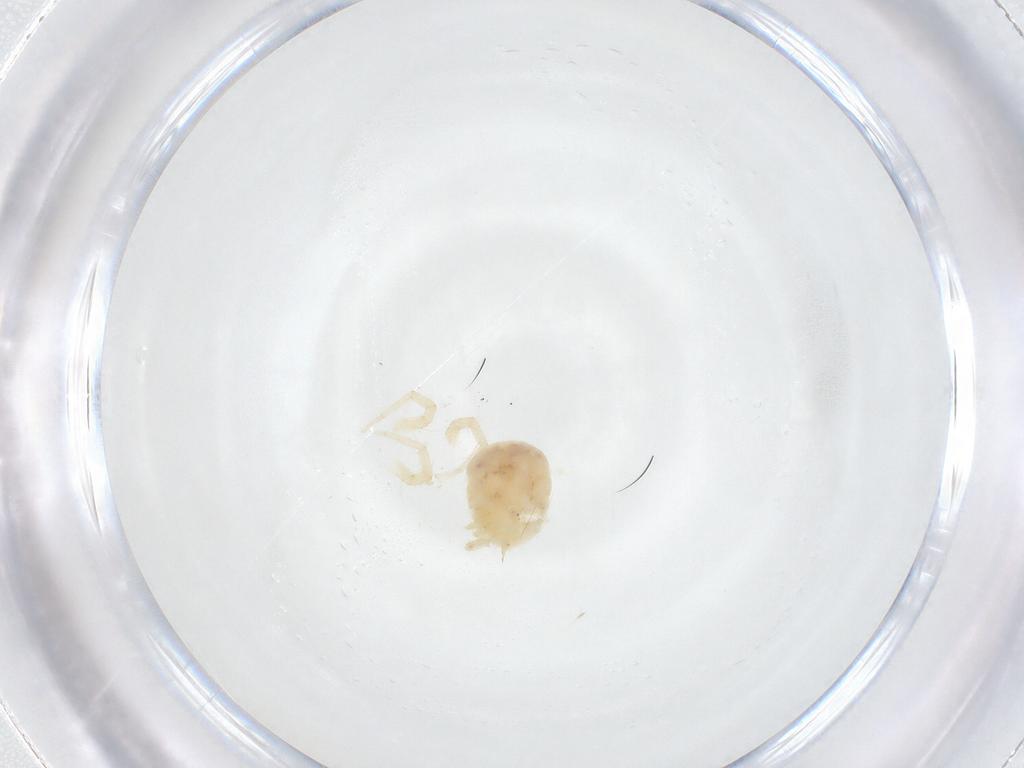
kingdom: Animalia
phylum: Arthropoda
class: Arachnida
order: Trombidiformes
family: Anystidae
